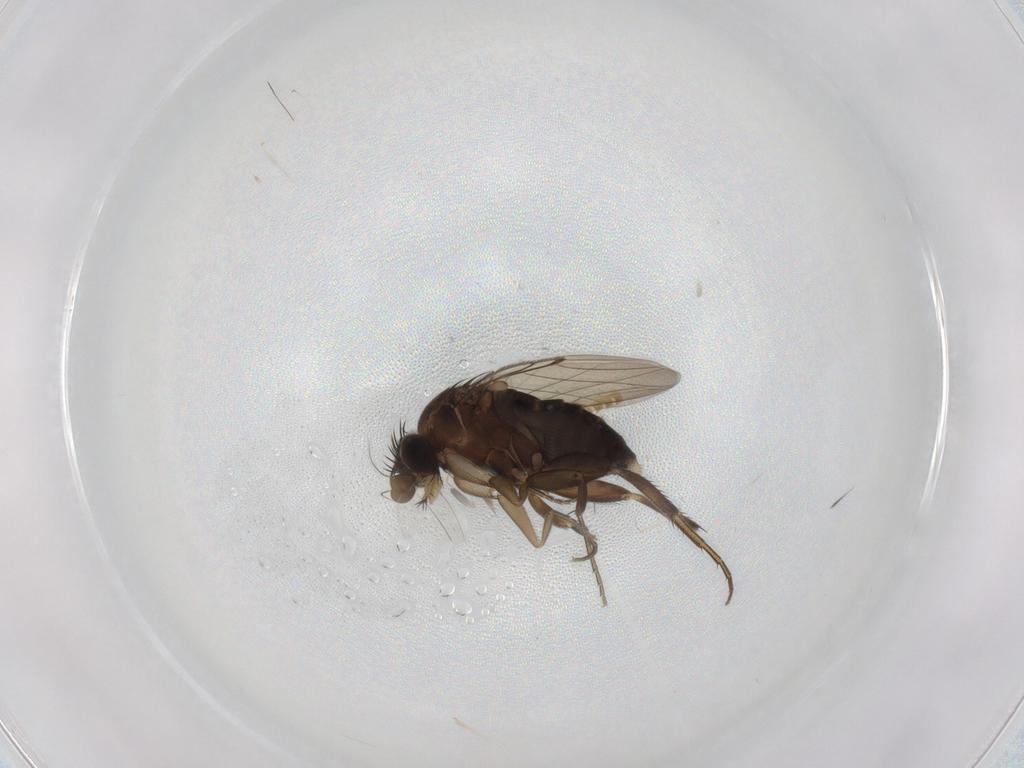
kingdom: Animalia
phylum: Arthropoda
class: Insecta
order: Diptera
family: Phoridae
